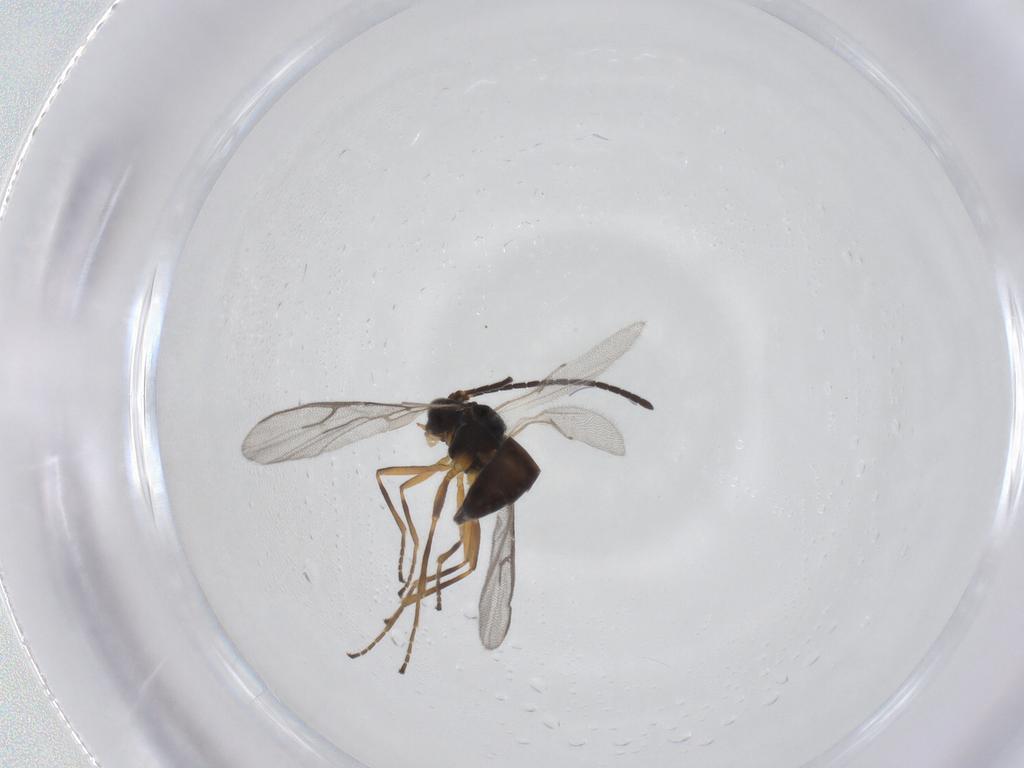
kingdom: Animalia
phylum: Arthropoda
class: Insecta
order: Hymenoptera
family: Braconidae
